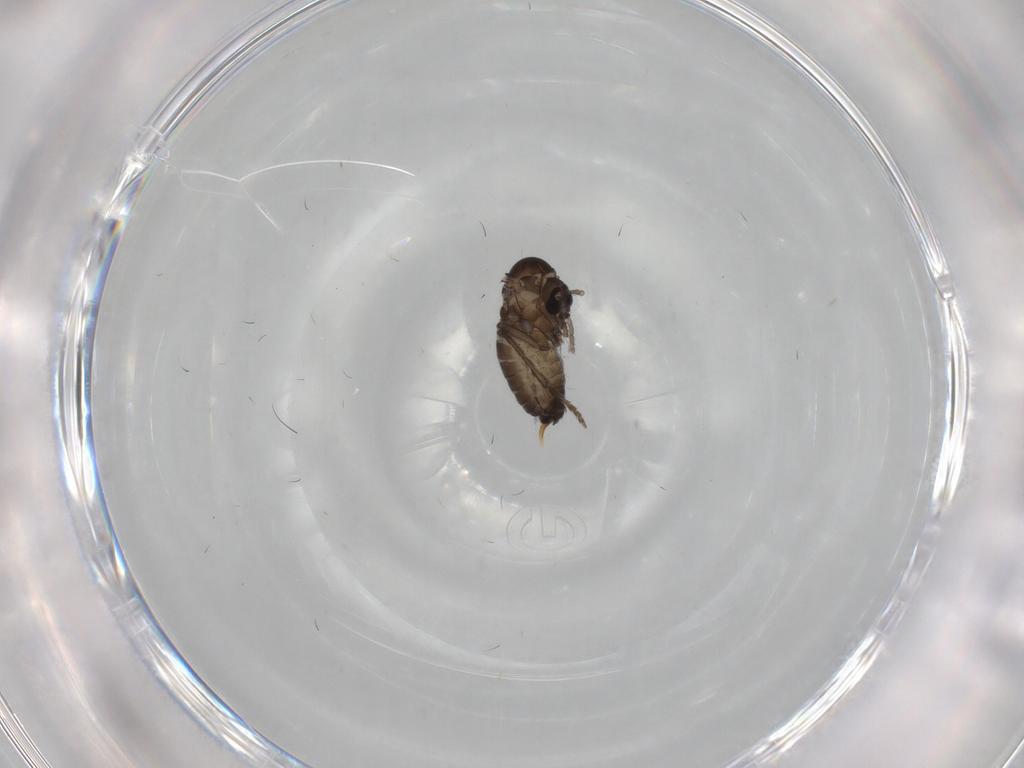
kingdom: Animalia
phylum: Arthropoda
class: Insecta
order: Diptera
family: Psychodidae
